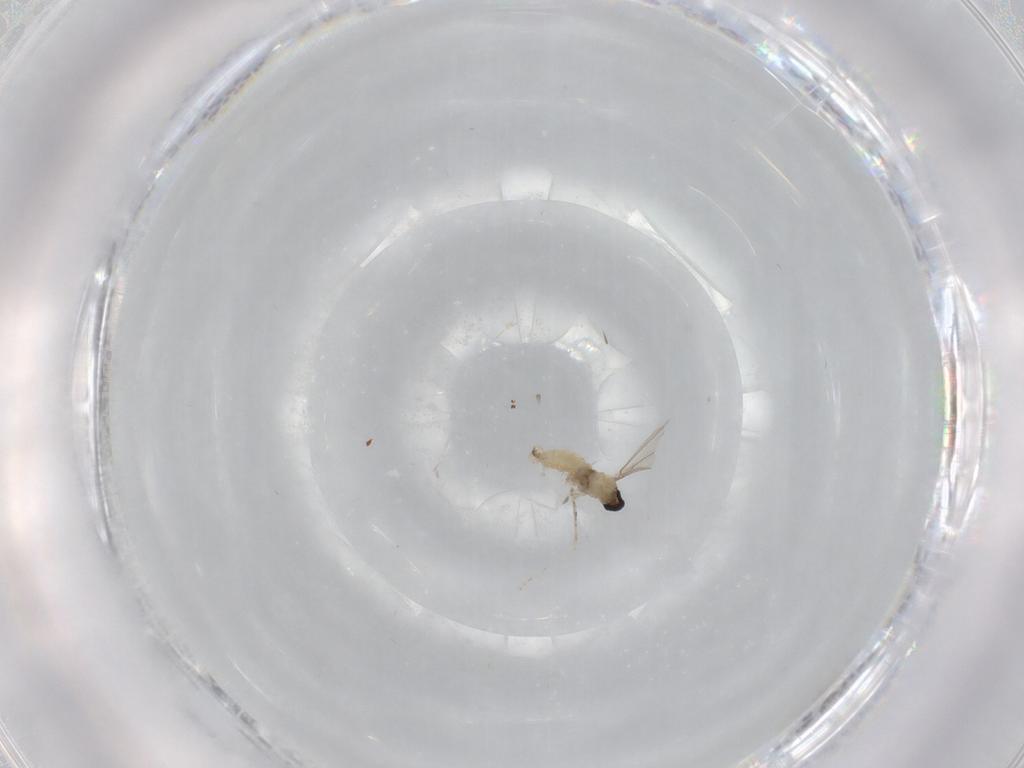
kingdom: Animalia
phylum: Arthropoda
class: Insecta
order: Diptera
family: Cecidomyiidae
